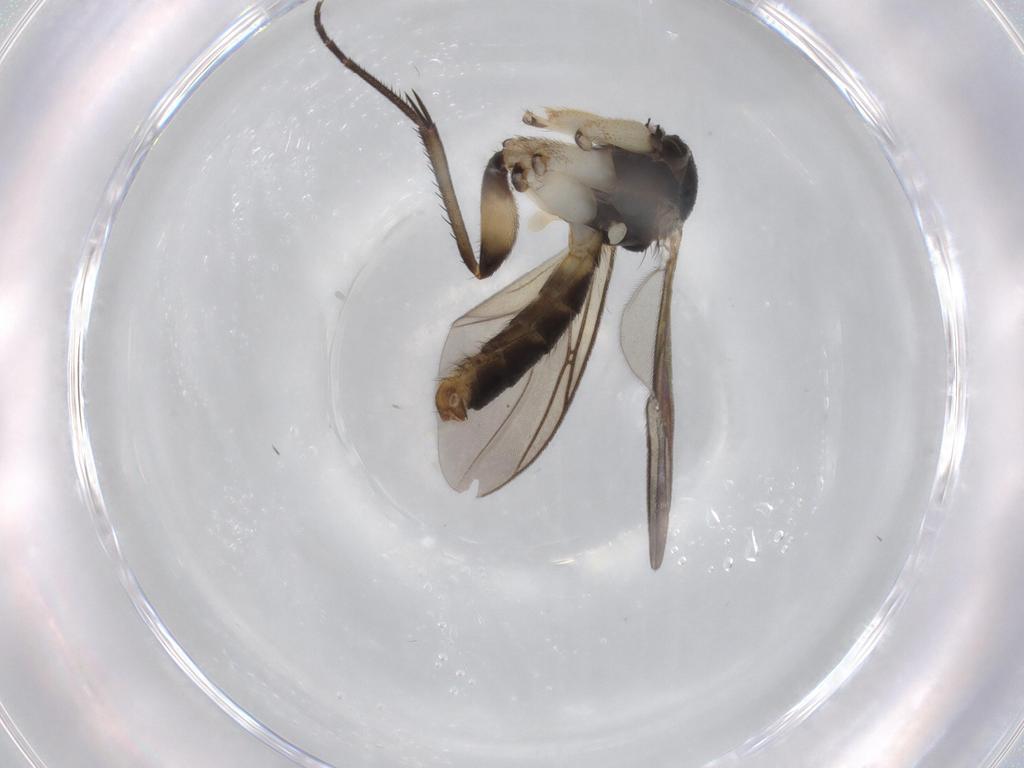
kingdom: Animalia
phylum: Arthropoda
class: Insecta
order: Diptera
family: Mycetophilidae
